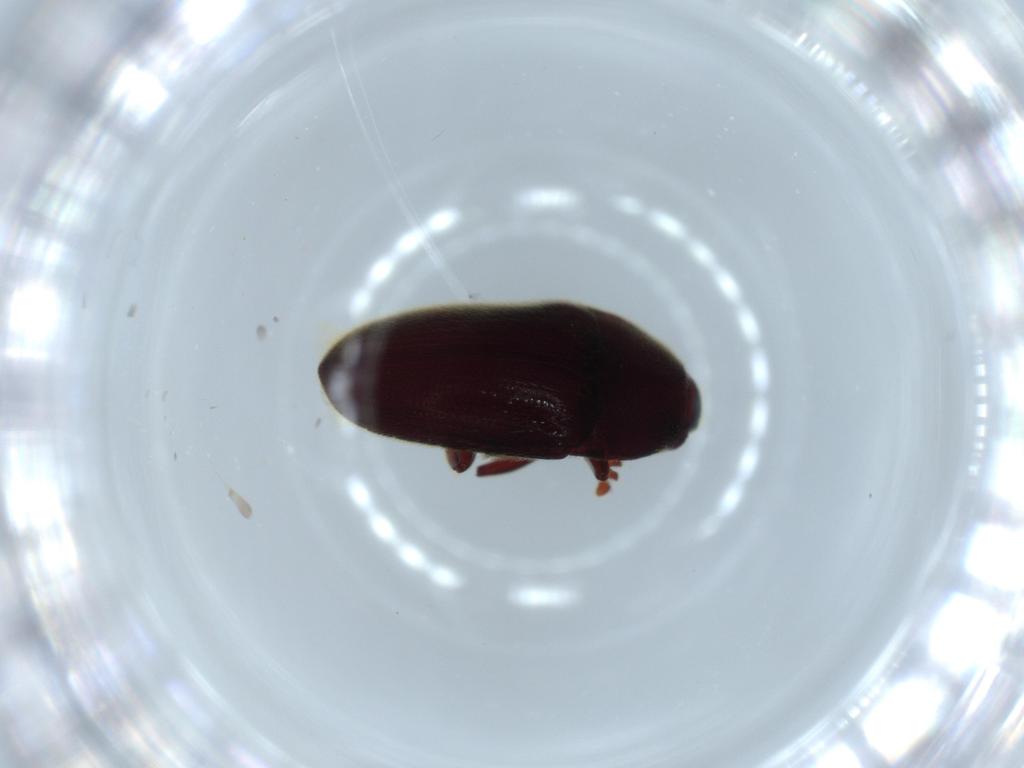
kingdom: Animalia
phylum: Arthropoda
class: Insecta
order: Coleoptera
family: Throscidae
